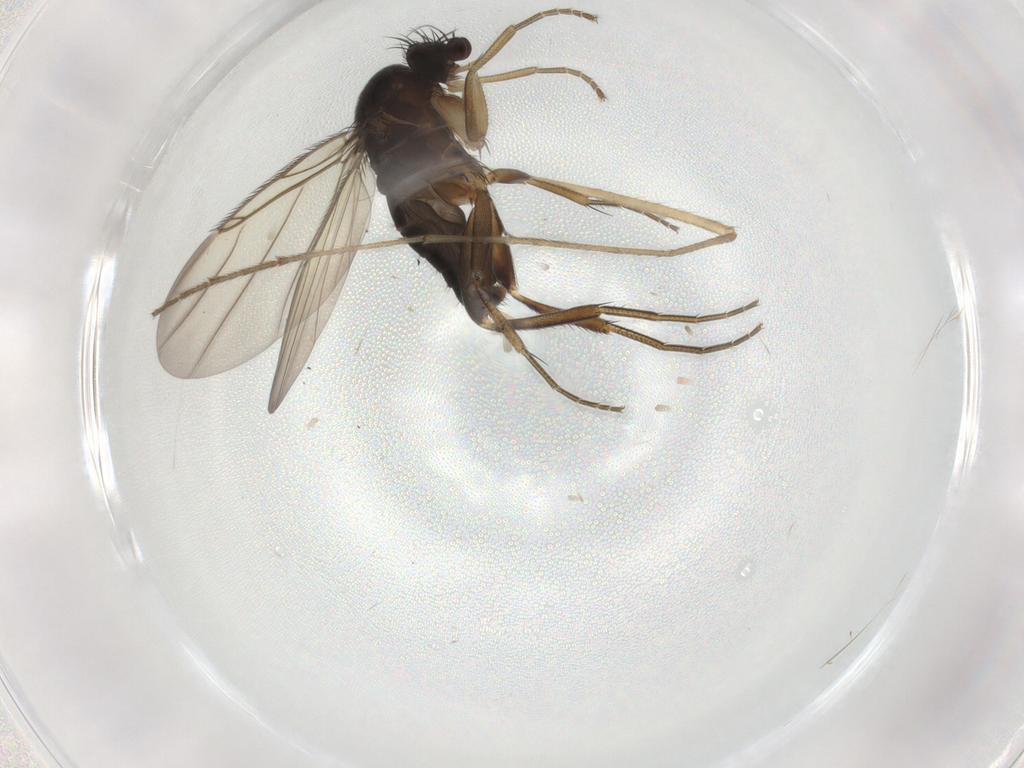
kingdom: Animalia
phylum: Arthropoda
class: Insecta
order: Diptera
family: Phoridae
